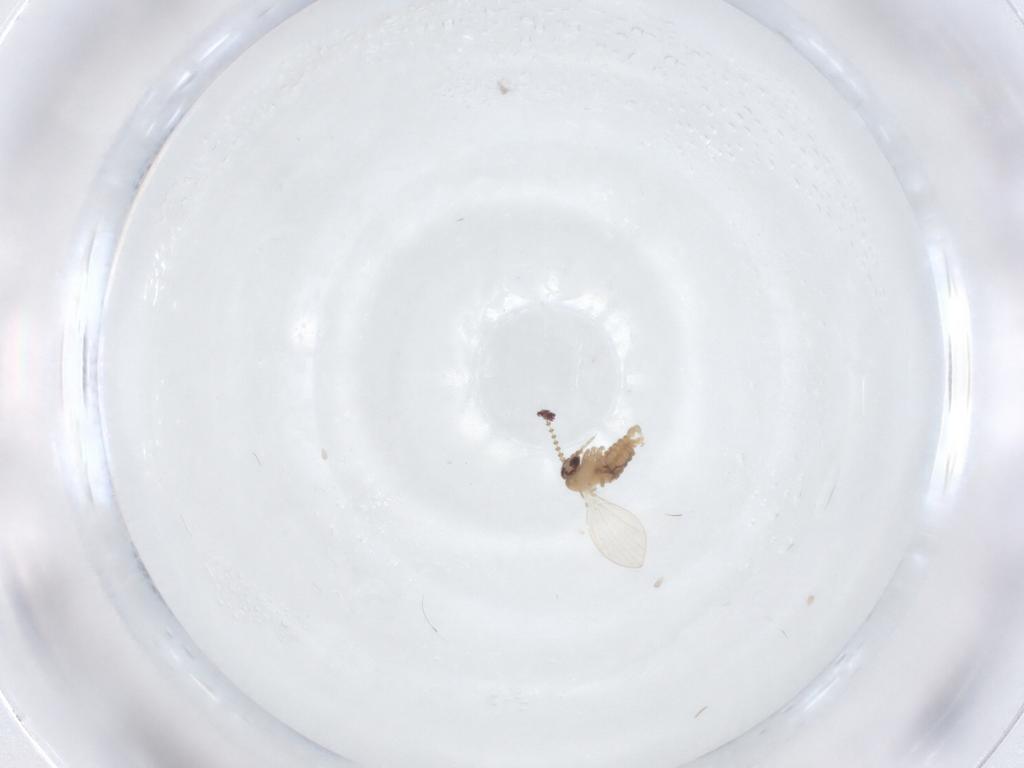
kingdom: Animalia
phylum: Arthropoda
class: Insecta
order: Diptera
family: Psychodidae
